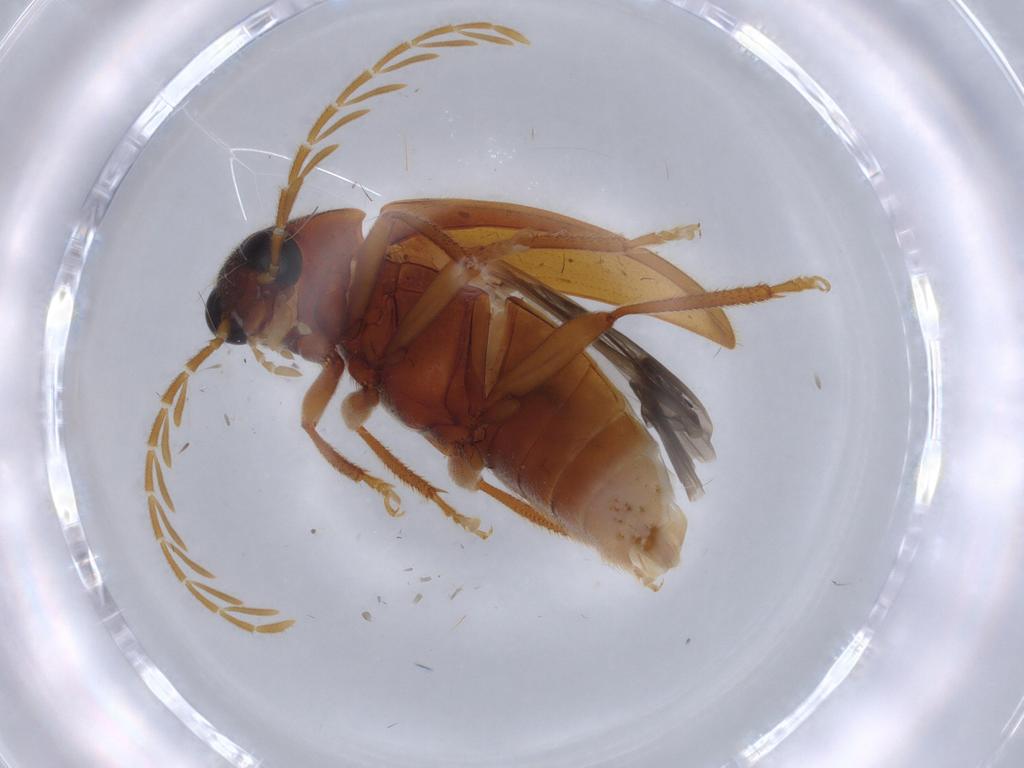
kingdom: Animalia
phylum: Arthropoda
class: Insecta
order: Coleoptera
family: Ptilodactylidae
